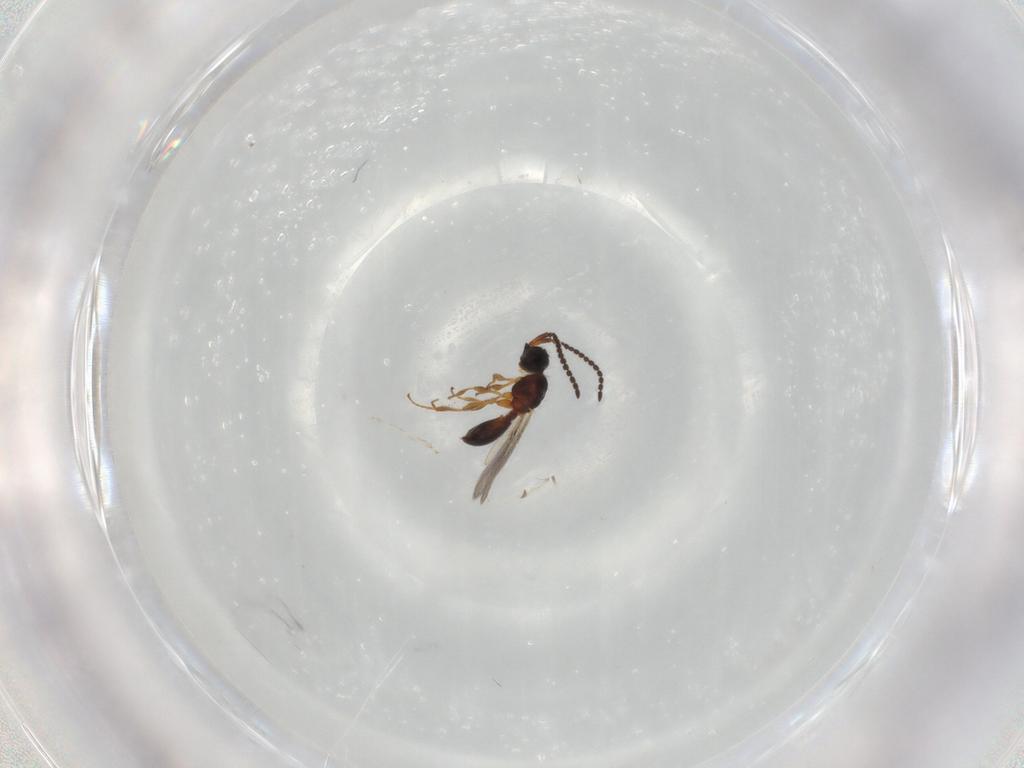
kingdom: Animalia
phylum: Arthropoda
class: Insecta
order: Hymenoptera
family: Diapriidae
